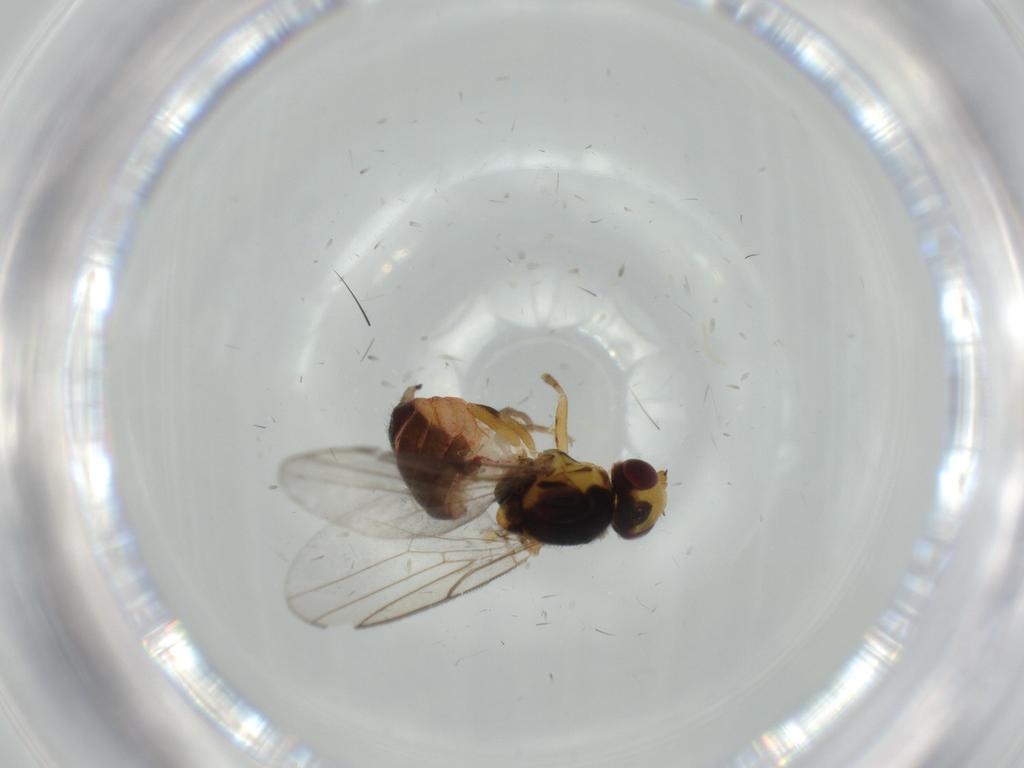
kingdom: Animalia
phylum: Arthropoda
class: Insecta
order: Diptera
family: Chloropidae
